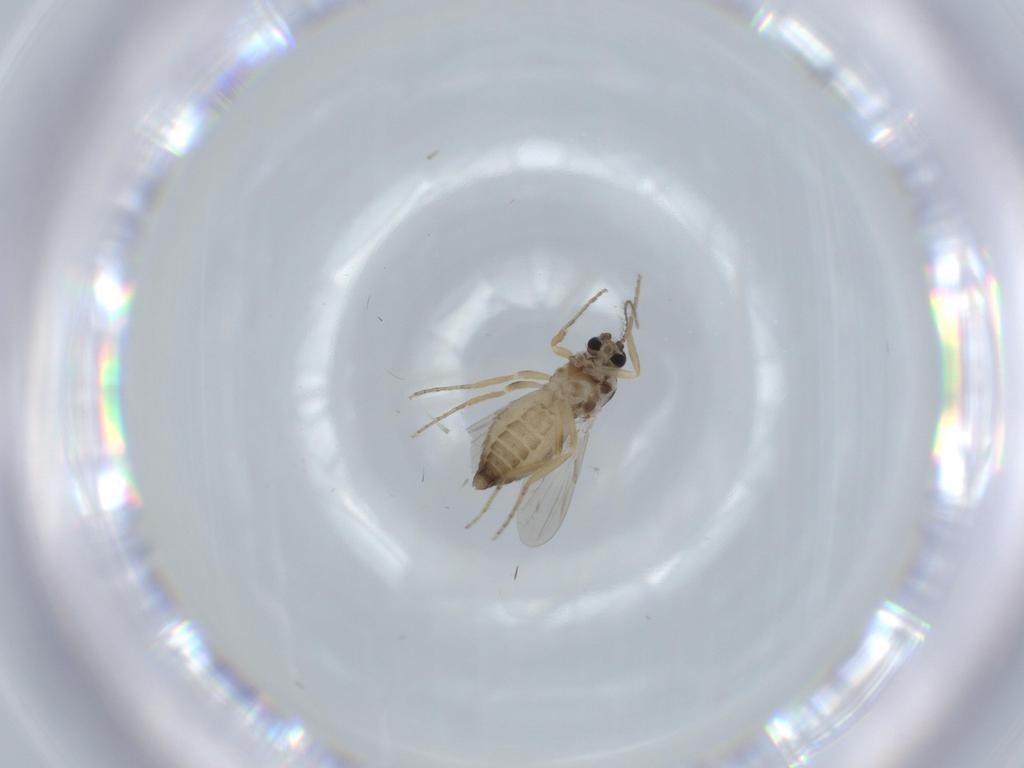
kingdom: Animalia
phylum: Arthropoda
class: Insecta
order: Diptera
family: Ceratopogonidae
